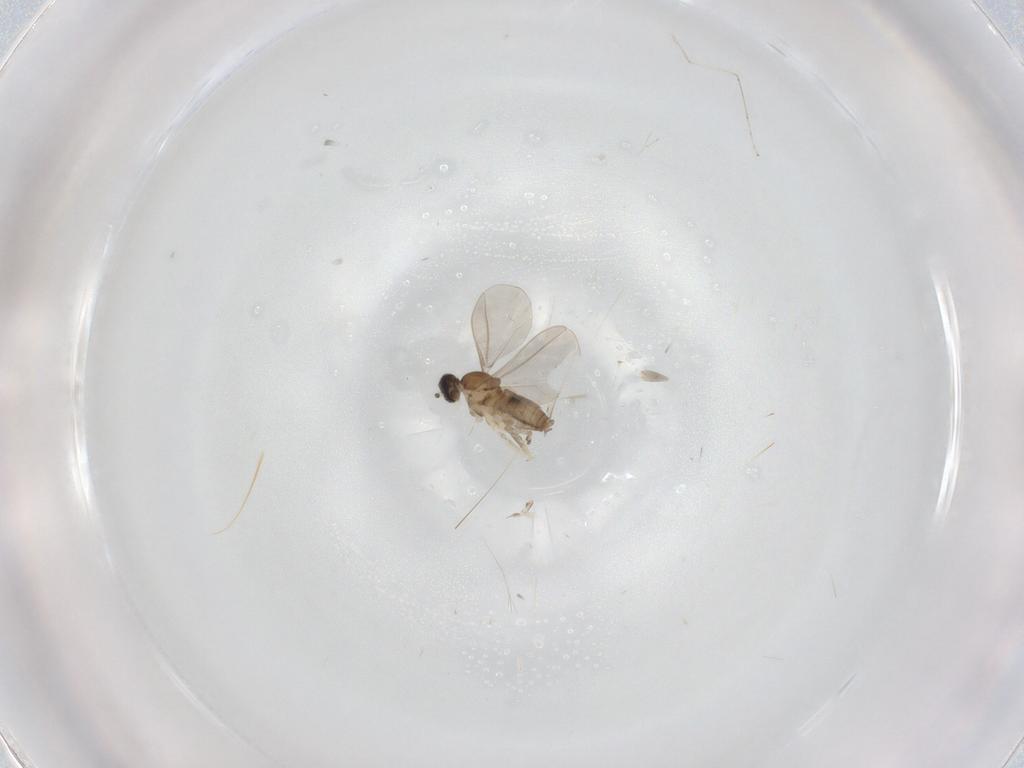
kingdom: Animalia
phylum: Arthropoda
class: Insecta
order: Diptera
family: Cecidomyiidae
